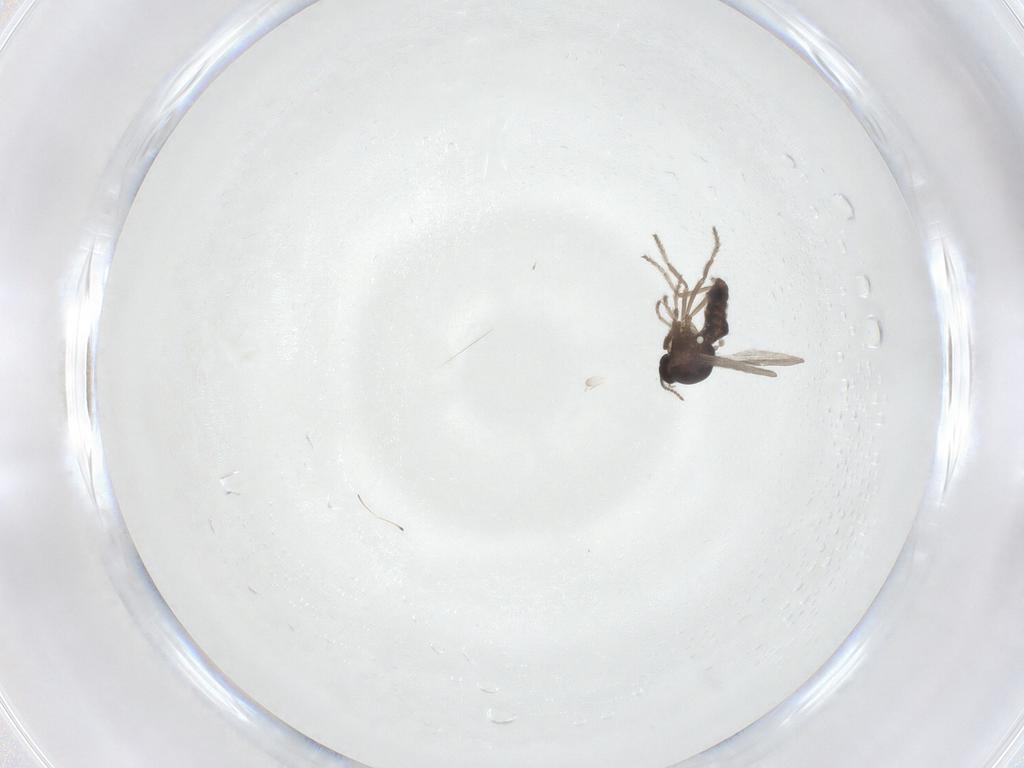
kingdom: Animalia
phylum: Arthropoda
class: Insecta
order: Diptera
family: Ceratopogonidae
